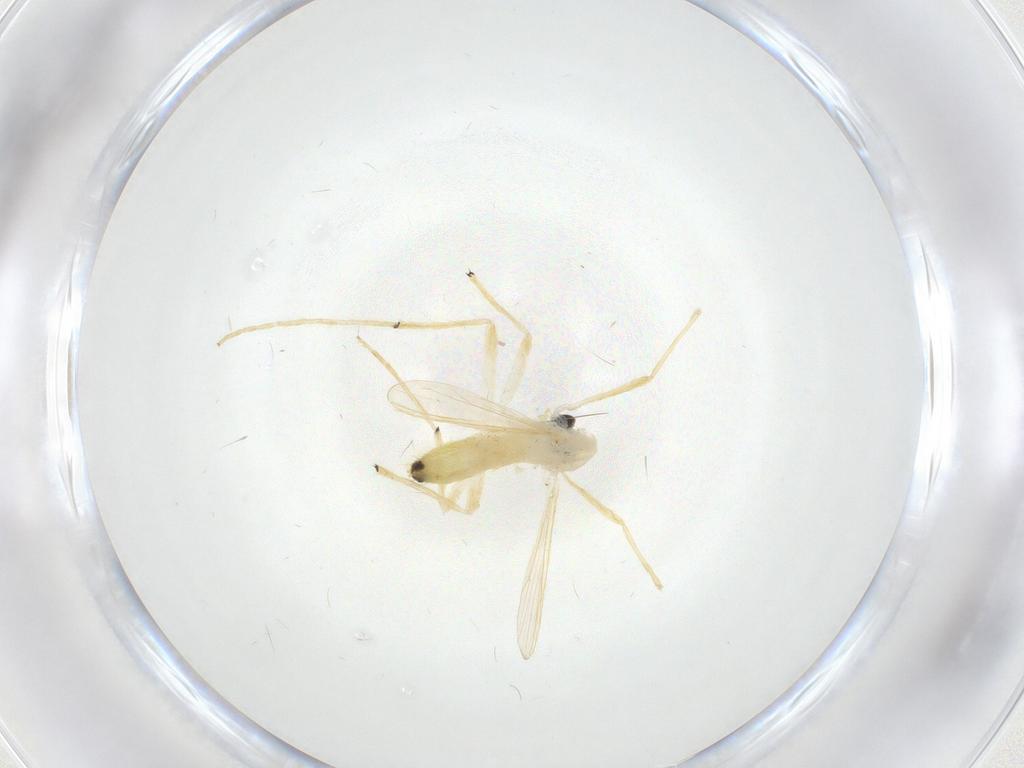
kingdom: Animalia
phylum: Arthropoda
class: Insecta
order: Diptera
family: Chironomidae
